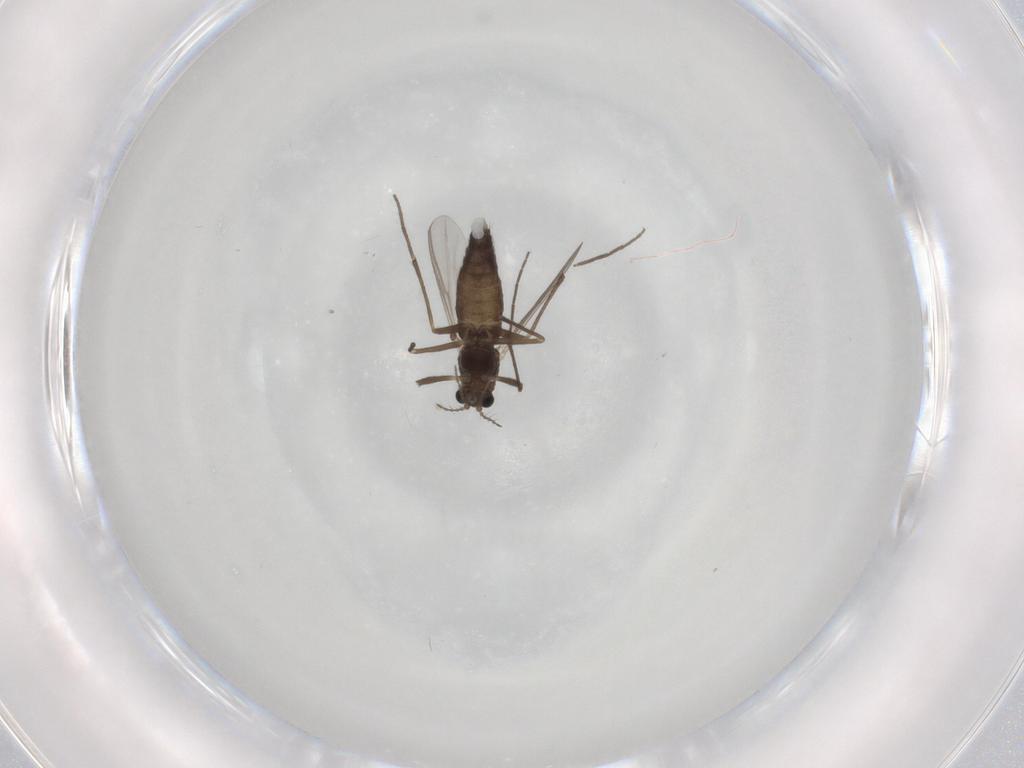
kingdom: Animalia
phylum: Arthropoda
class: Insecta
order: Diptera
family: Chironomidae
